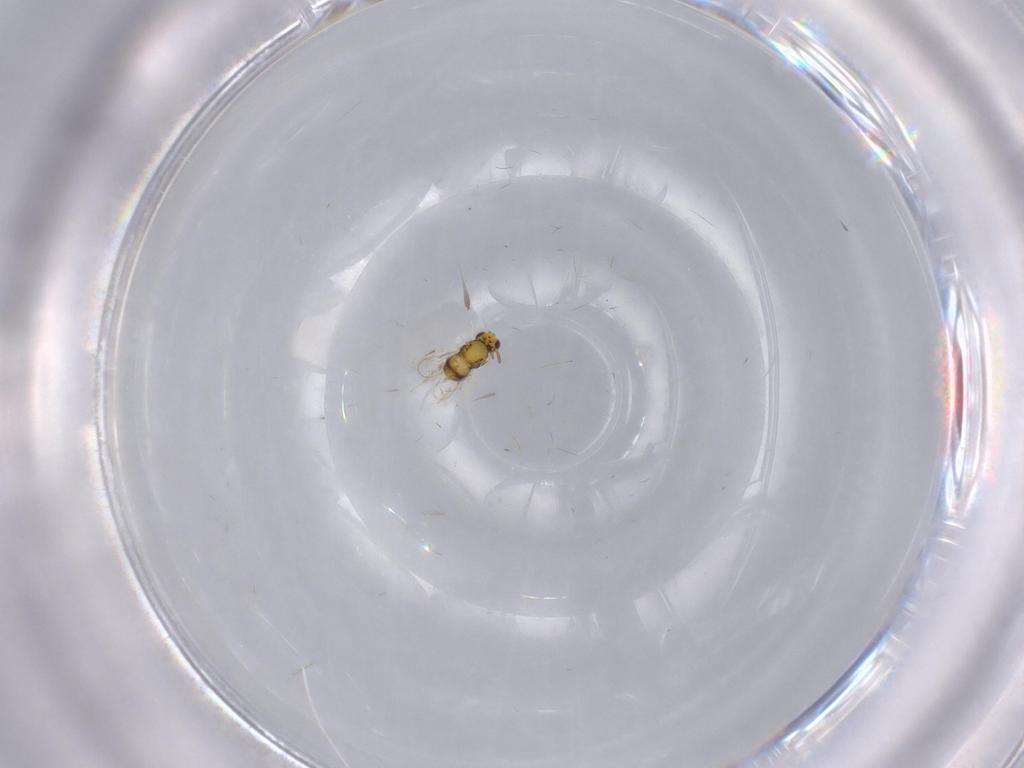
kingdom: Animalia
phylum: Arthropoda
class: Insecta
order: Hymenoptera
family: Aphelinidae
